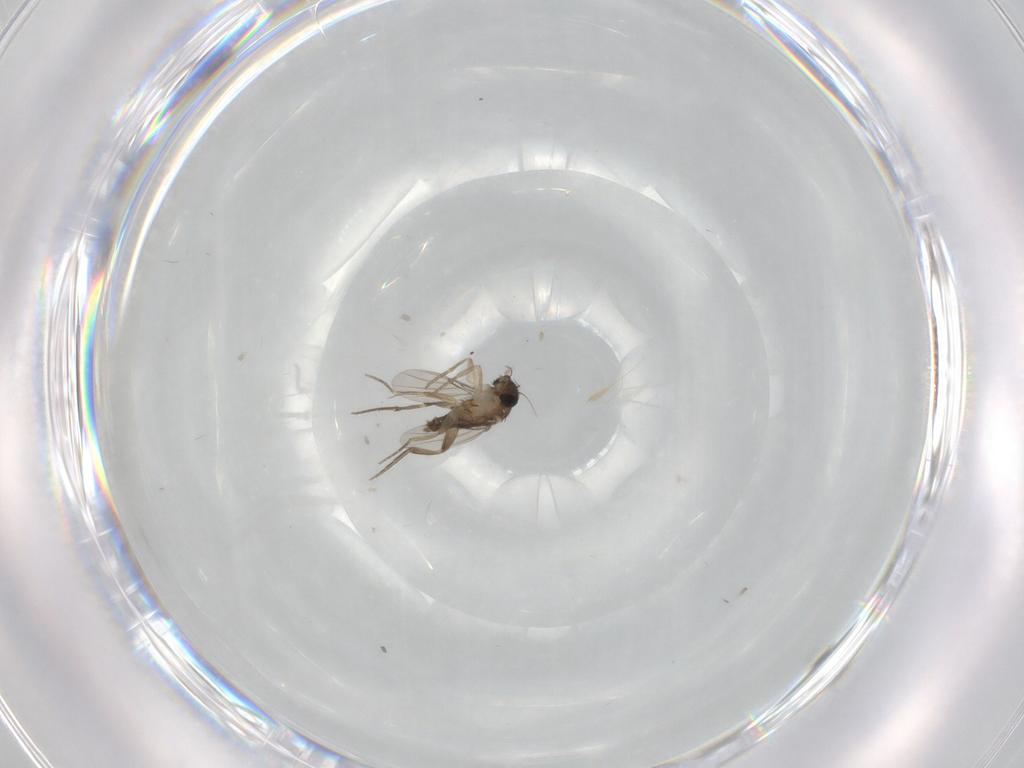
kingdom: Animalia
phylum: Arthropoda
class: Insecta
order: Diptera
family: Phoridae
